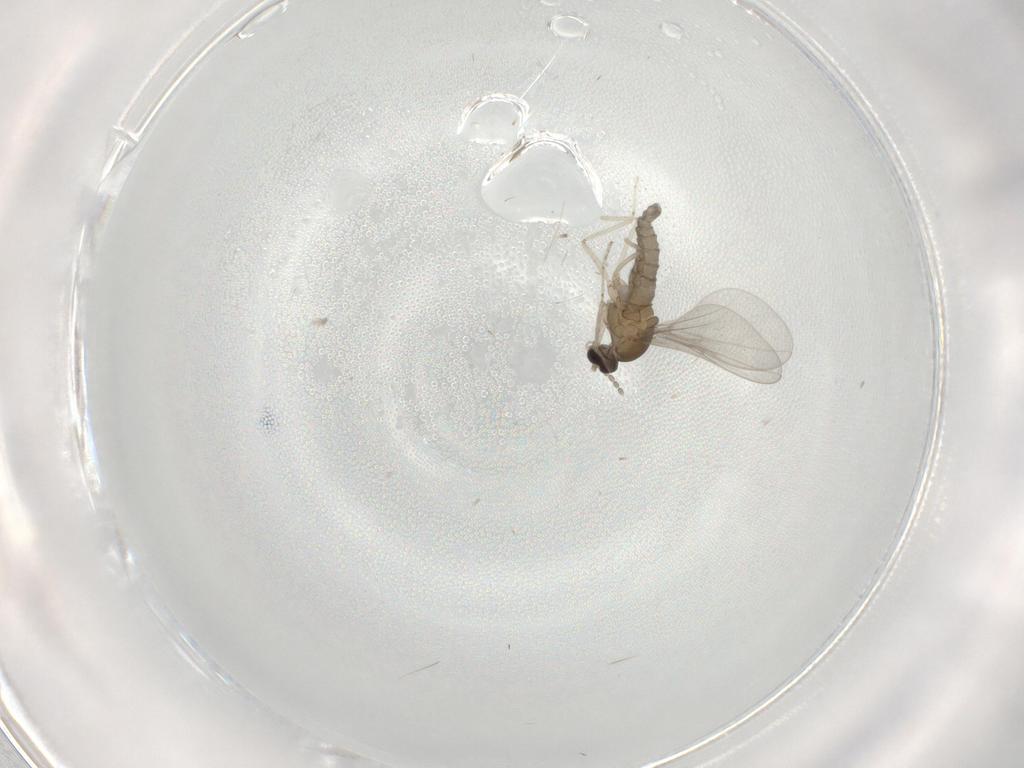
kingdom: Animalia
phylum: Arthropoda
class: Insecta
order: Diptera
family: Cecidomyiidae
